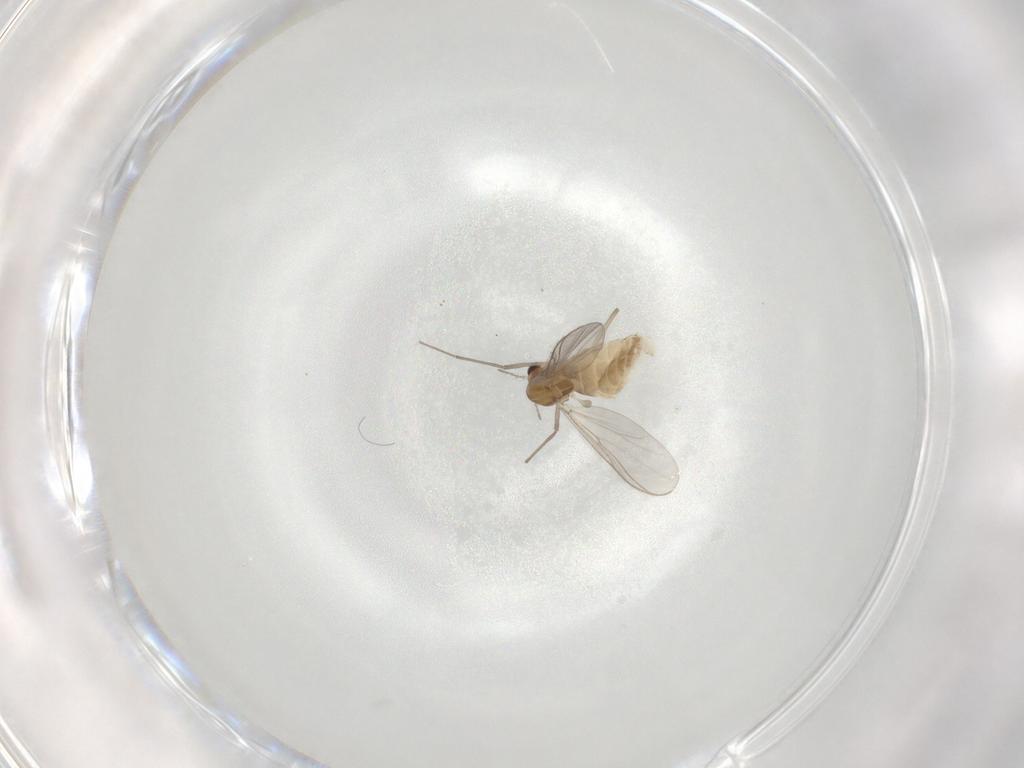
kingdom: Animalia
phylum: Arthropoda
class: Insecta
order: Diptera
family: Chironomidae
